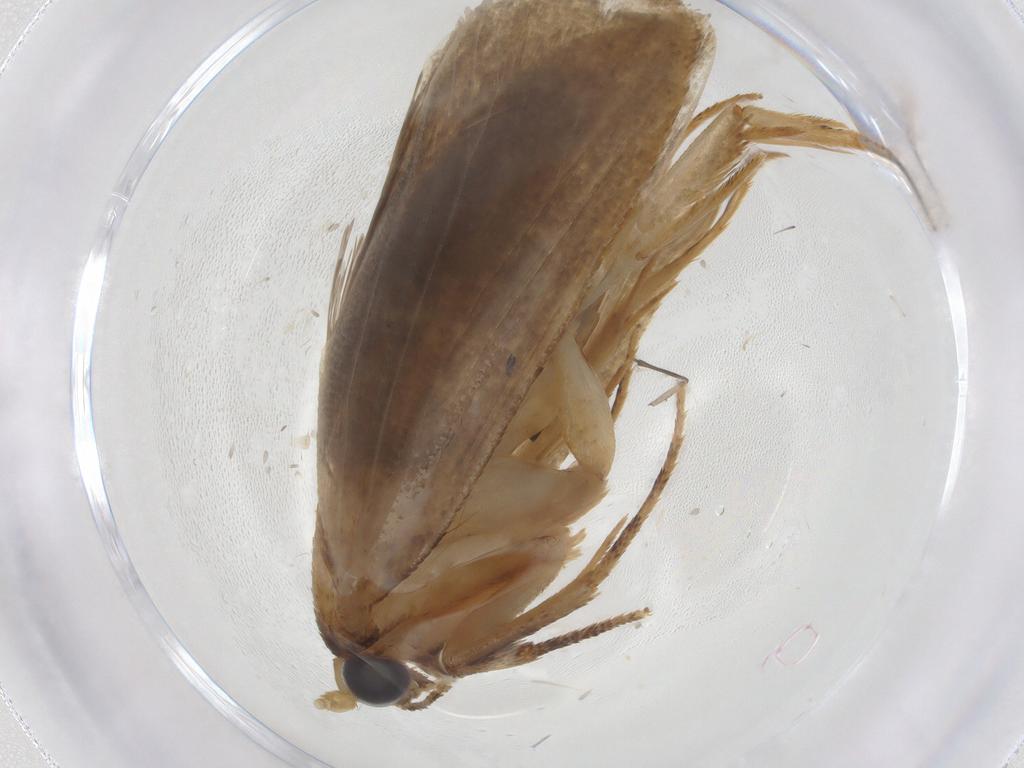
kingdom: Animalia
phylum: Arthropoda
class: Insecta
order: Lepidoptera
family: Tineidae
